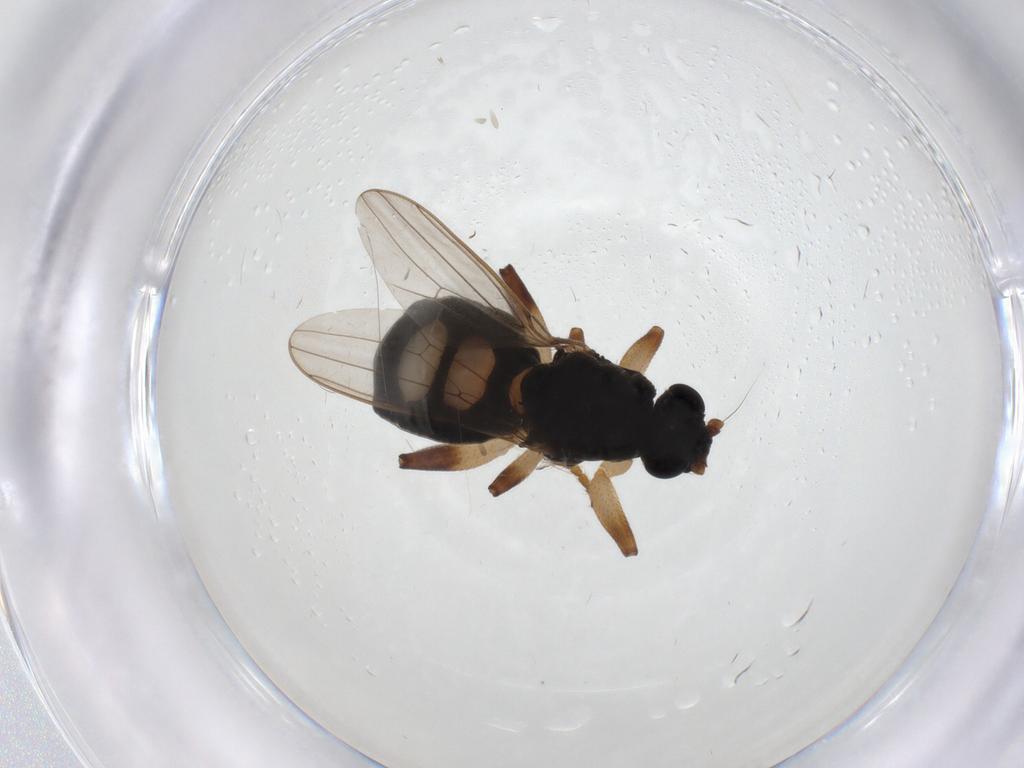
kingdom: Animalia
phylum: Arthropoda
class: Insecta
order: Diptera
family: Sphaeroceridae
